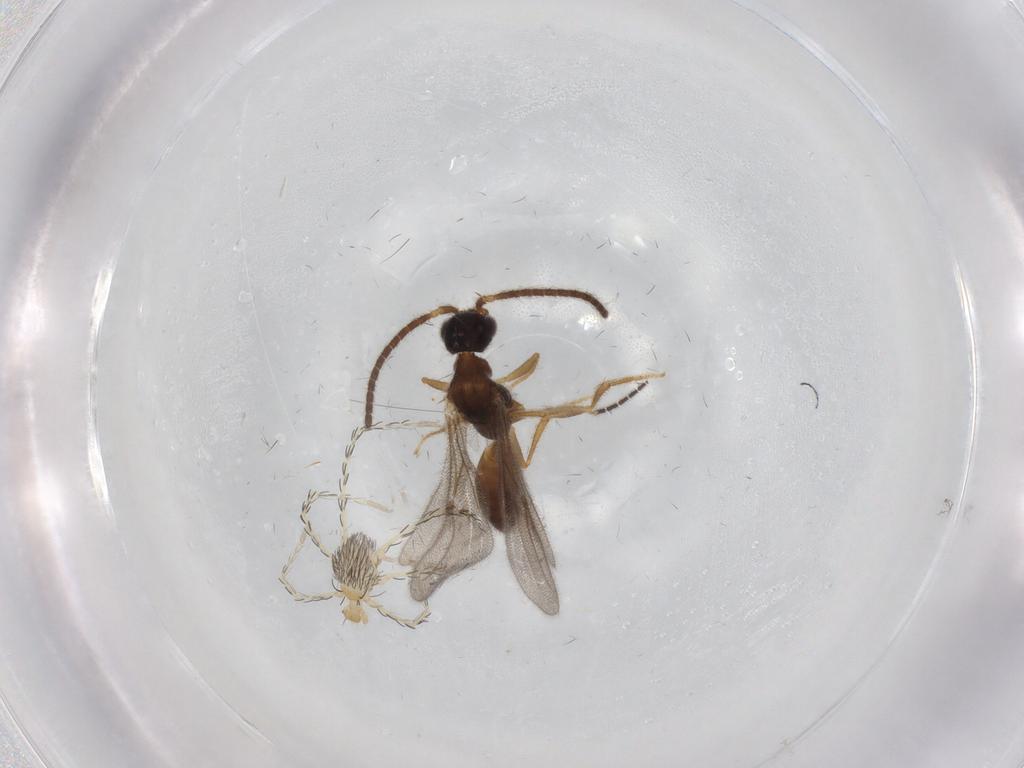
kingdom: Animalia
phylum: Arthropoda
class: Arachnida
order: Trombidiformes
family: Erythraeidae
